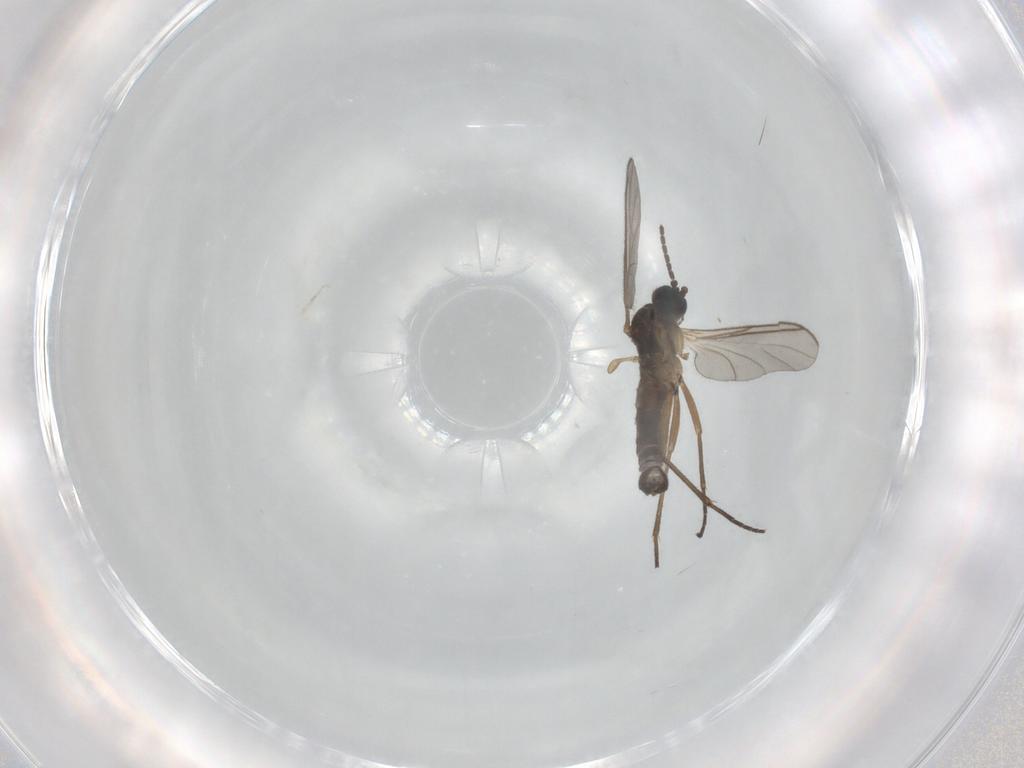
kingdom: Animalia
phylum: Arthropoda
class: Insecta
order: Diptera
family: Sciaridae
